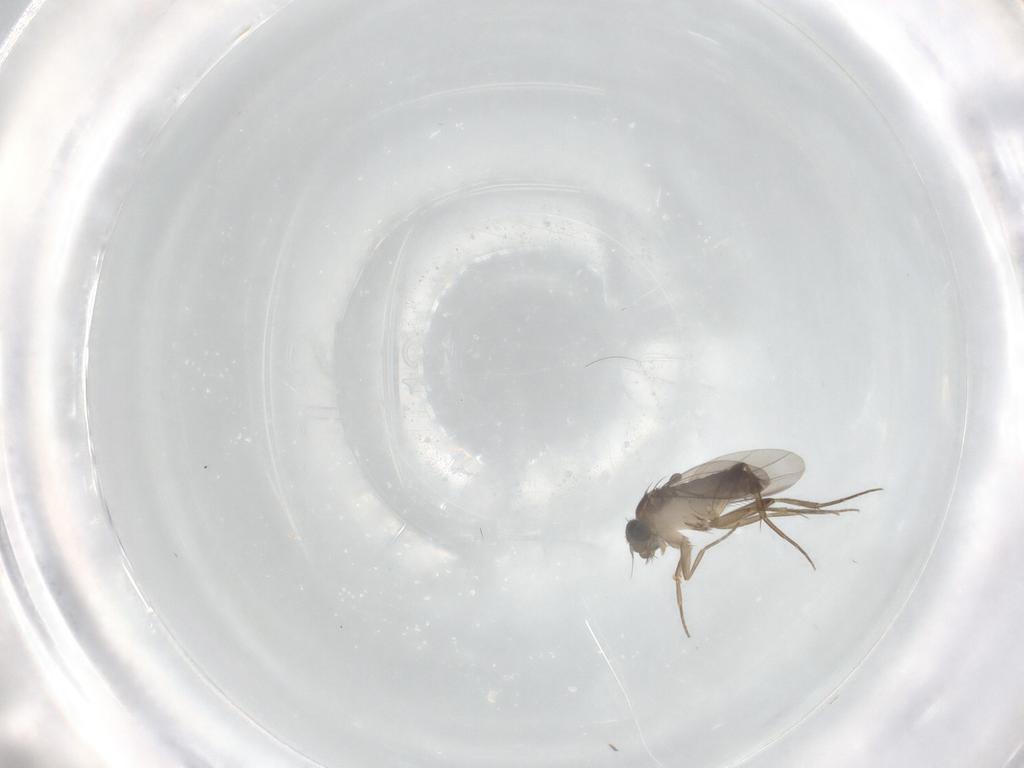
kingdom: Animalia
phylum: Arthropoda
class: Insecta
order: Diptera
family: Phoridae
